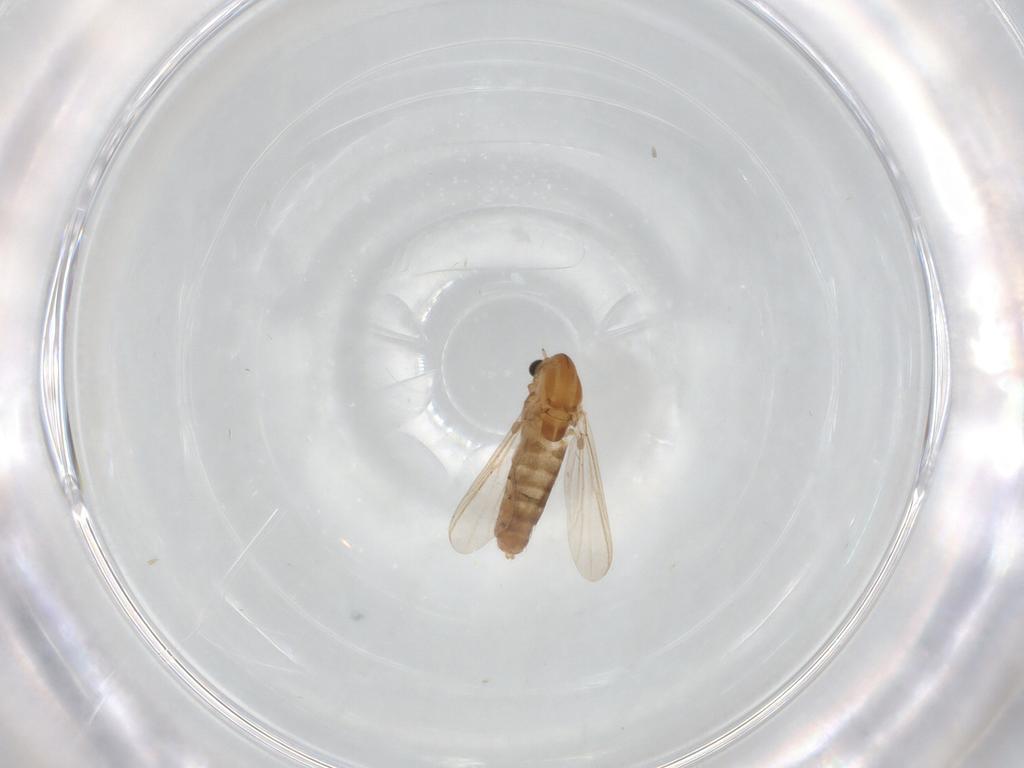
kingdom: Animalia
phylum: Arthropoda
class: Insecta
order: Diptera
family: Chironomidae
